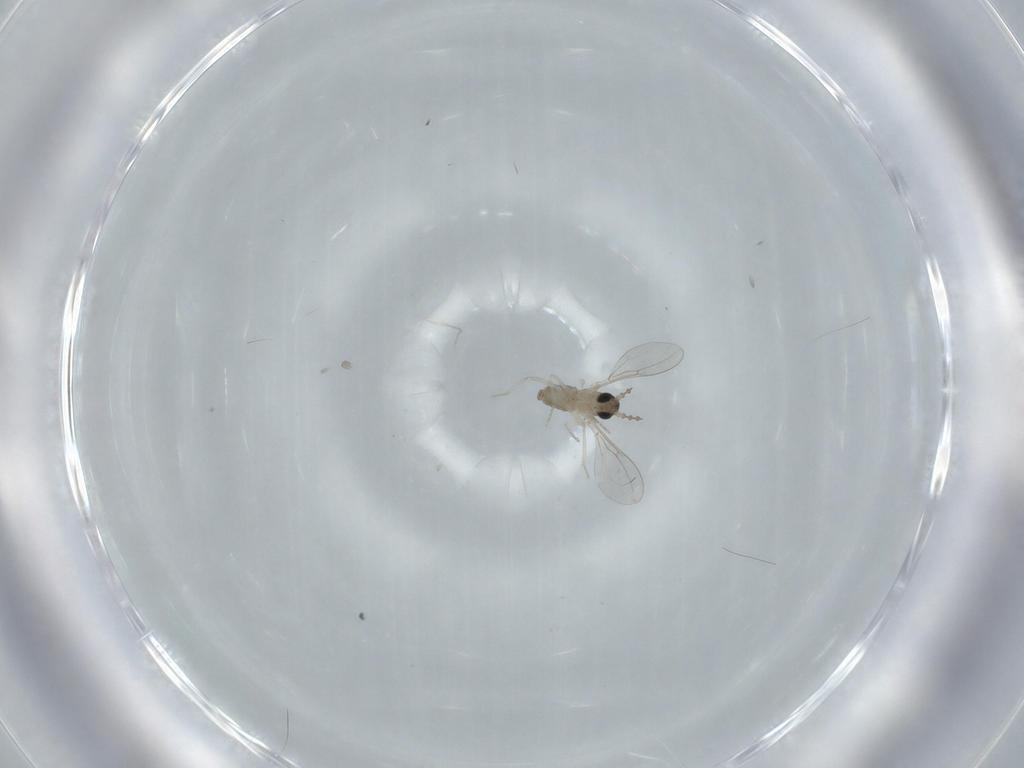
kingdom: Animalia
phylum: Arthropoda
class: Insecta
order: Diptera
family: Cecidomyiidae
